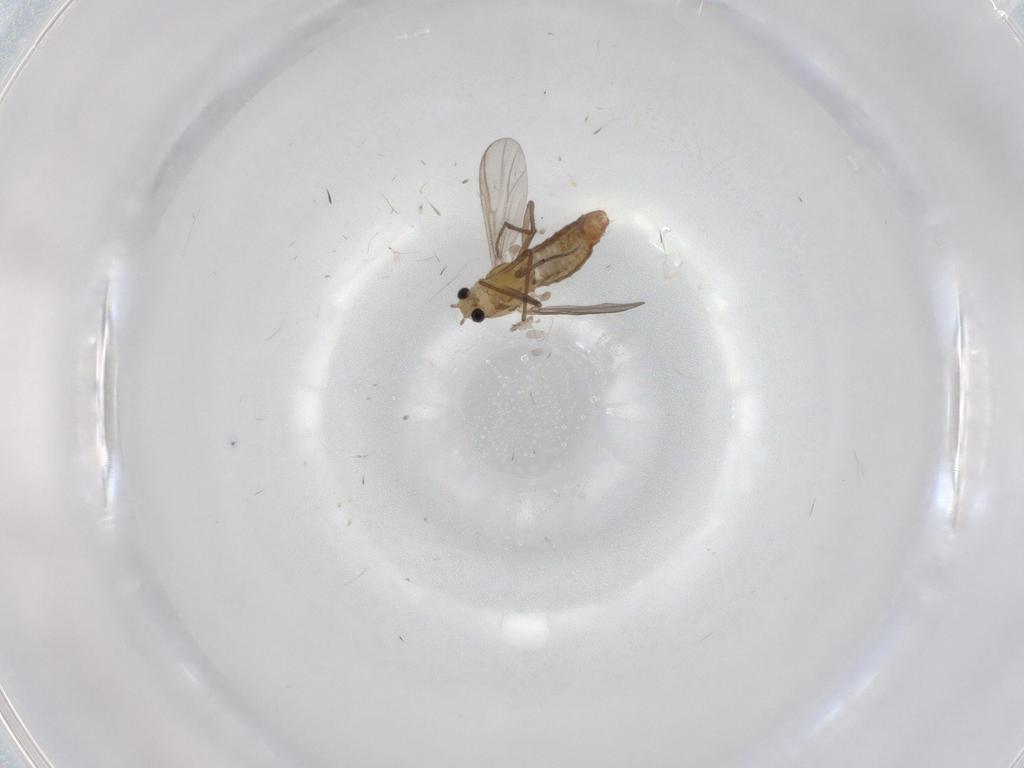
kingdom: Animalia
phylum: Arthropoda
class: Insecta
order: Diptera
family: Chironomidae
